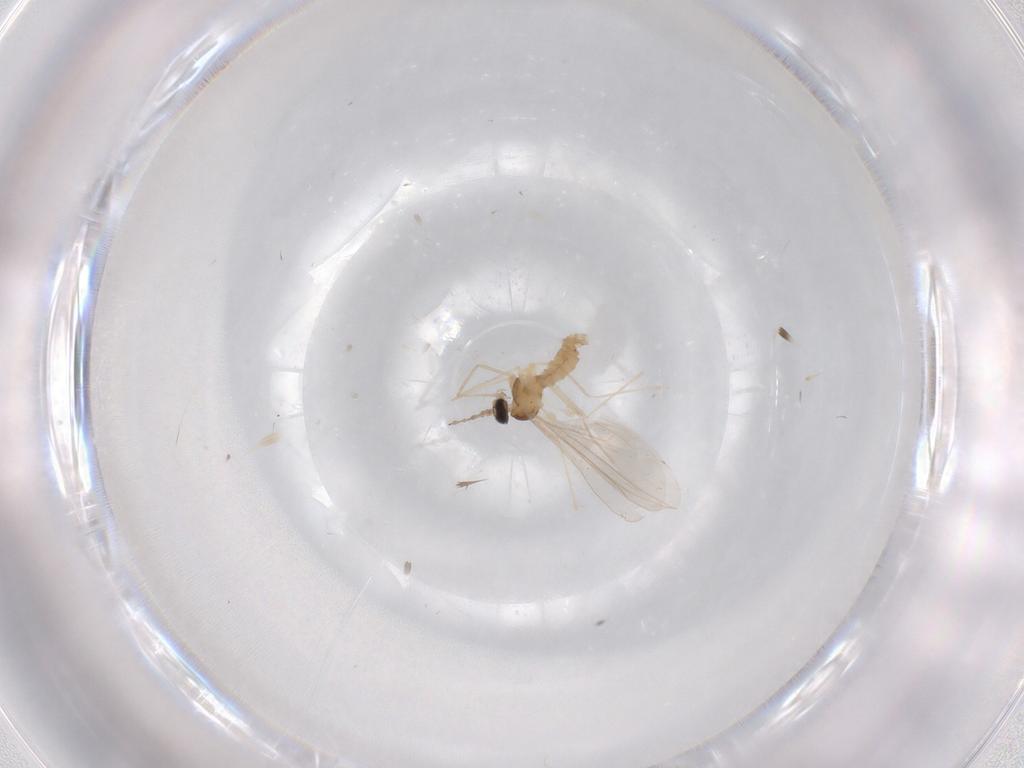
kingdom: Animalia
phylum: Arthropoda
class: Insecta
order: Diptera
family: Cecidomyiidae
